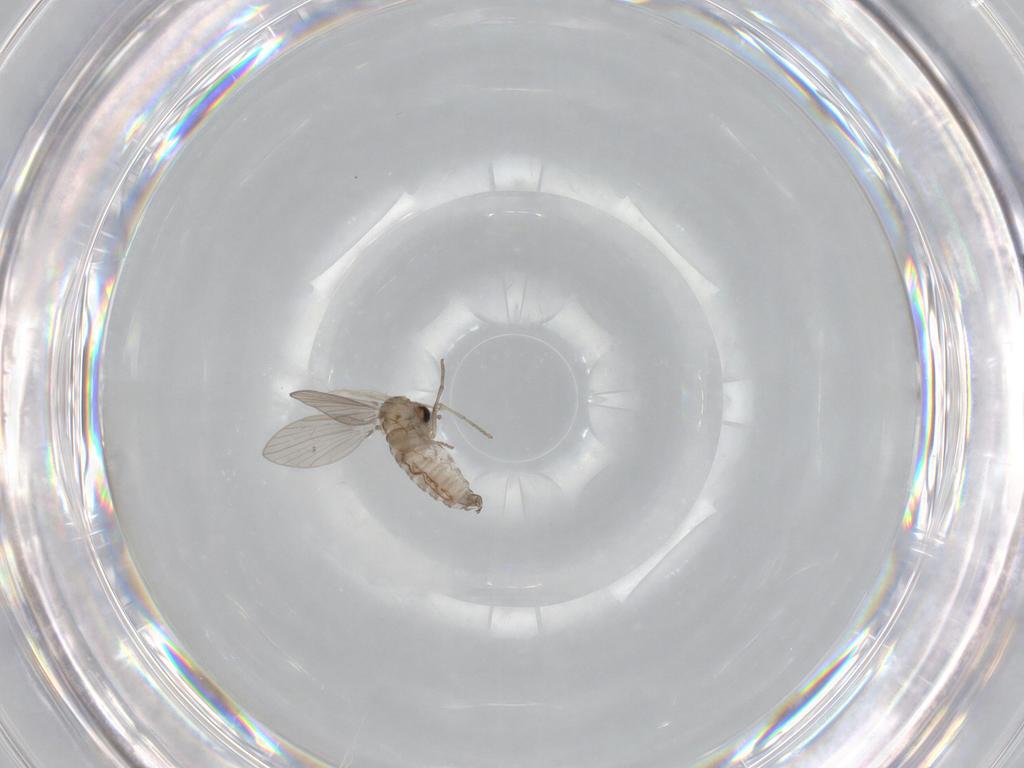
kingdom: Animalia
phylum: Arthropoda
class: Insecta
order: Diptera
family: Psychodidae
